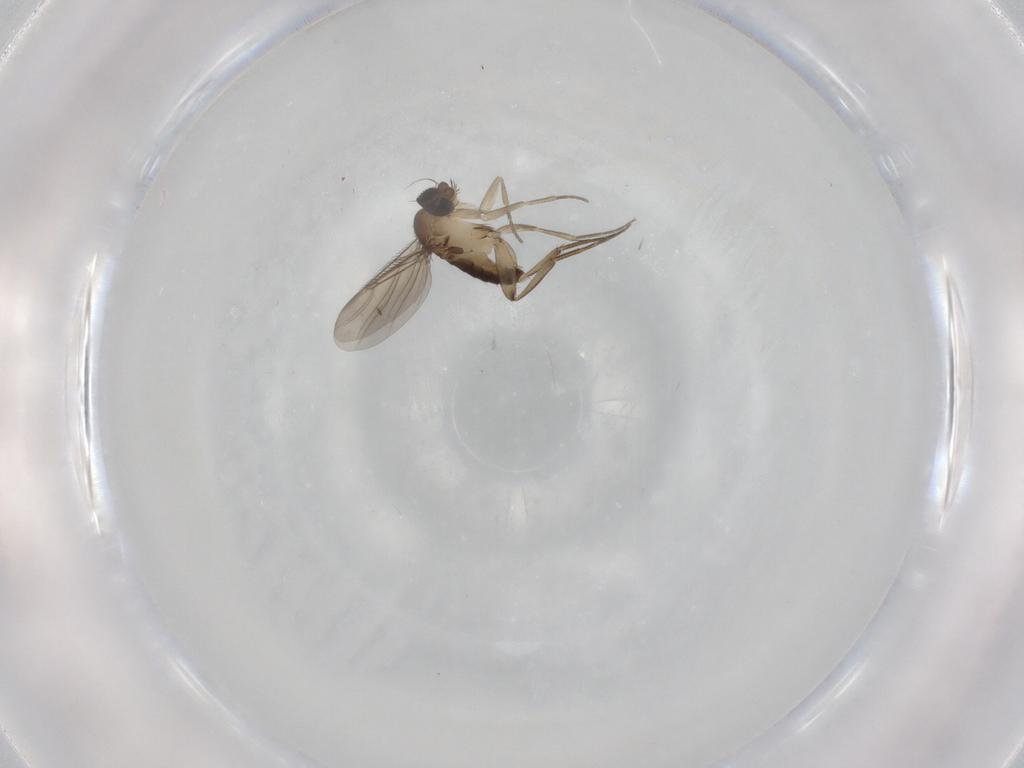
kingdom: Animalia
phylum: Arthropoda
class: Insecta
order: Diptera
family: Phoridae
